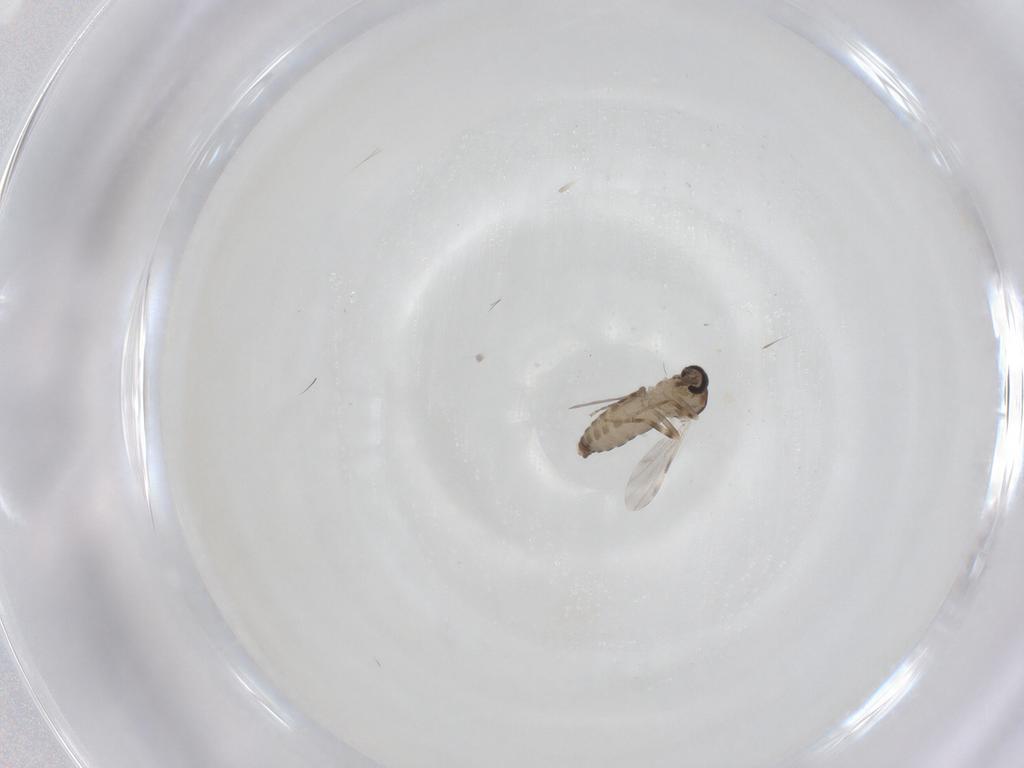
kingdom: Animalia
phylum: Arthropoda
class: Insecta
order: Diptera
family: Ceratopogonidae
